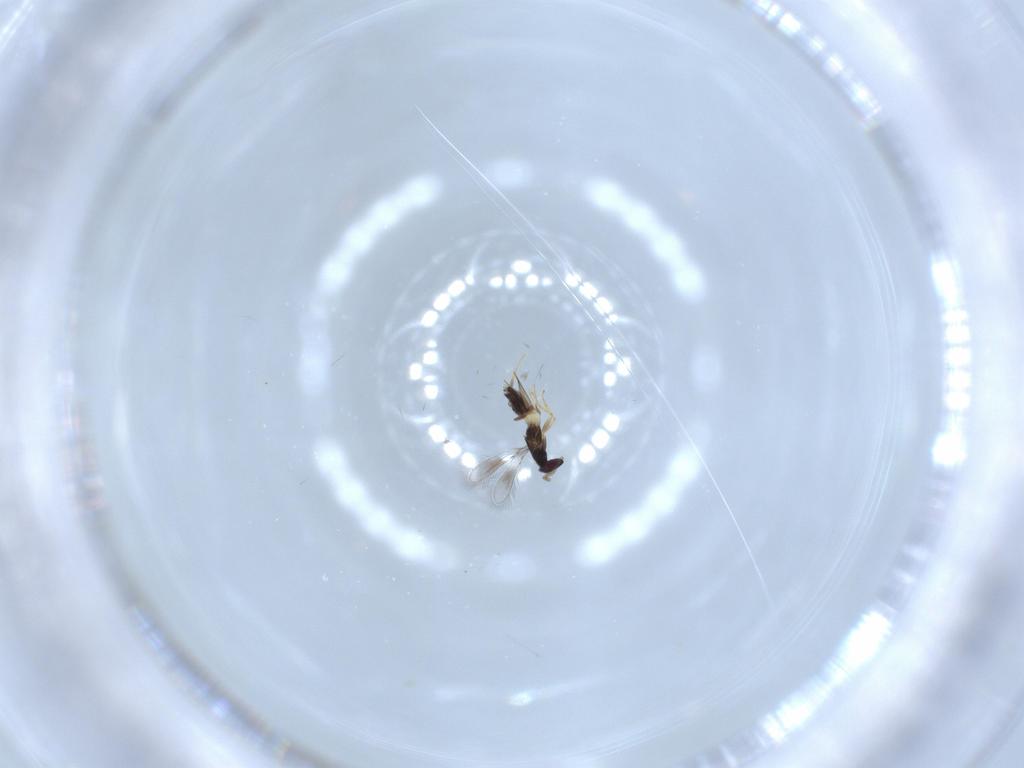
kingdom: Animalia
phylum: Arthropoda
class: Insecta
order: Hymenoptera
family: Mymaridae
